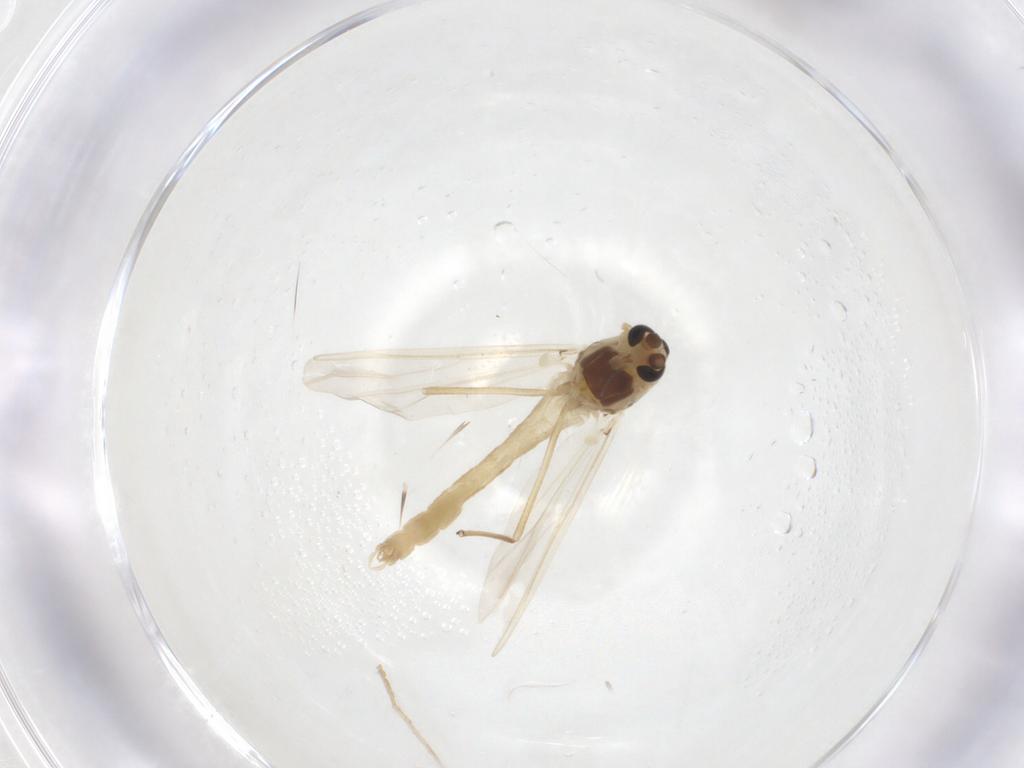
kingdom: Animalia
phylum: Arthropoda
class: Insecta
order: Diptera
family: Chironomidae
